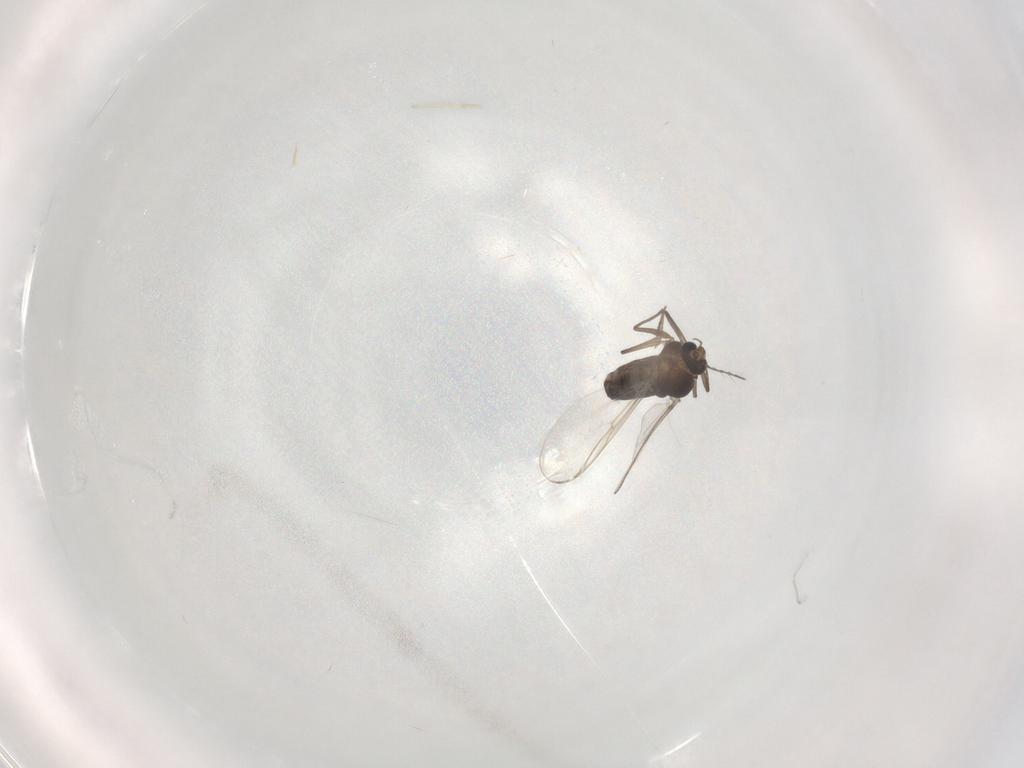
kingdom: Animalia
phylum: Arthropoda
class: Insecta
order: Diptera
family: Chironomidae
